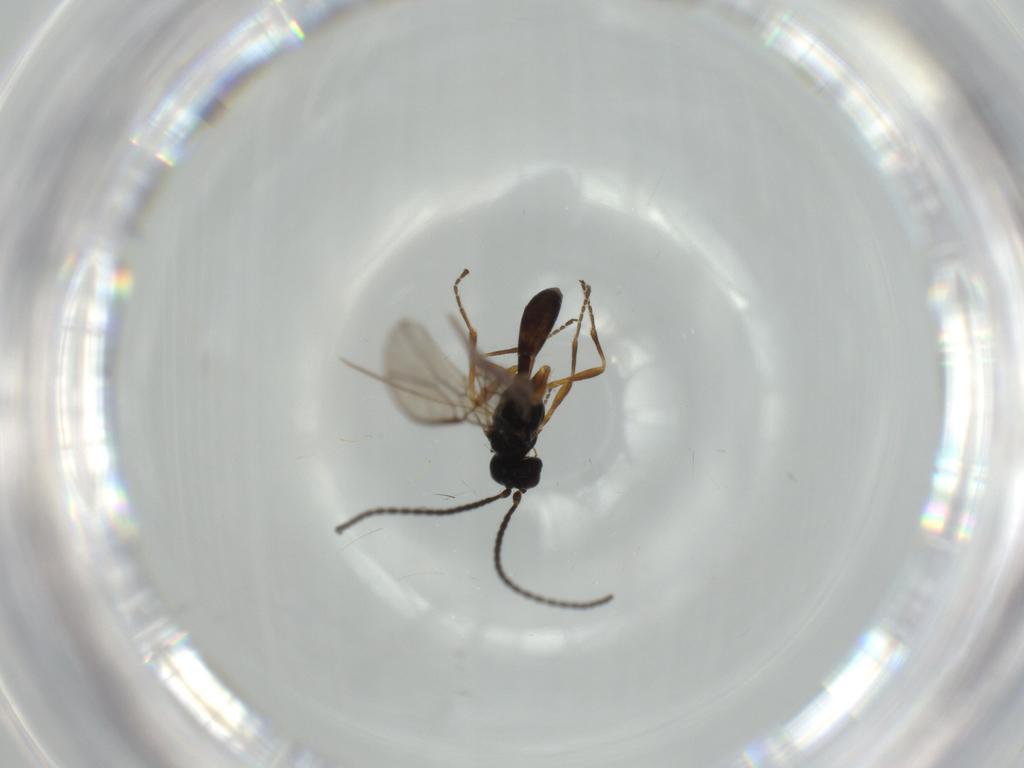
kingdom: Animalia
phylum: Arthropoda
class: Insecta
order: Hymenoptera
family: Braconidae
